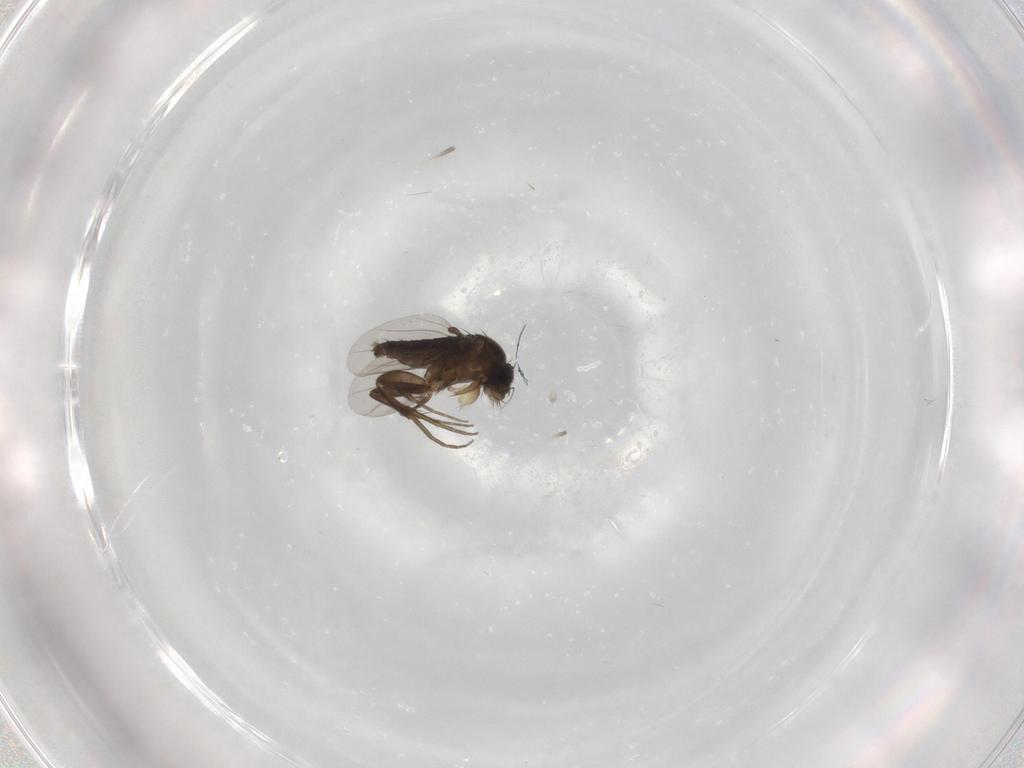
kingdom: Animalia
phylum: Arthropoda
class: Insecta
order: Diptera
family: Phoridae
